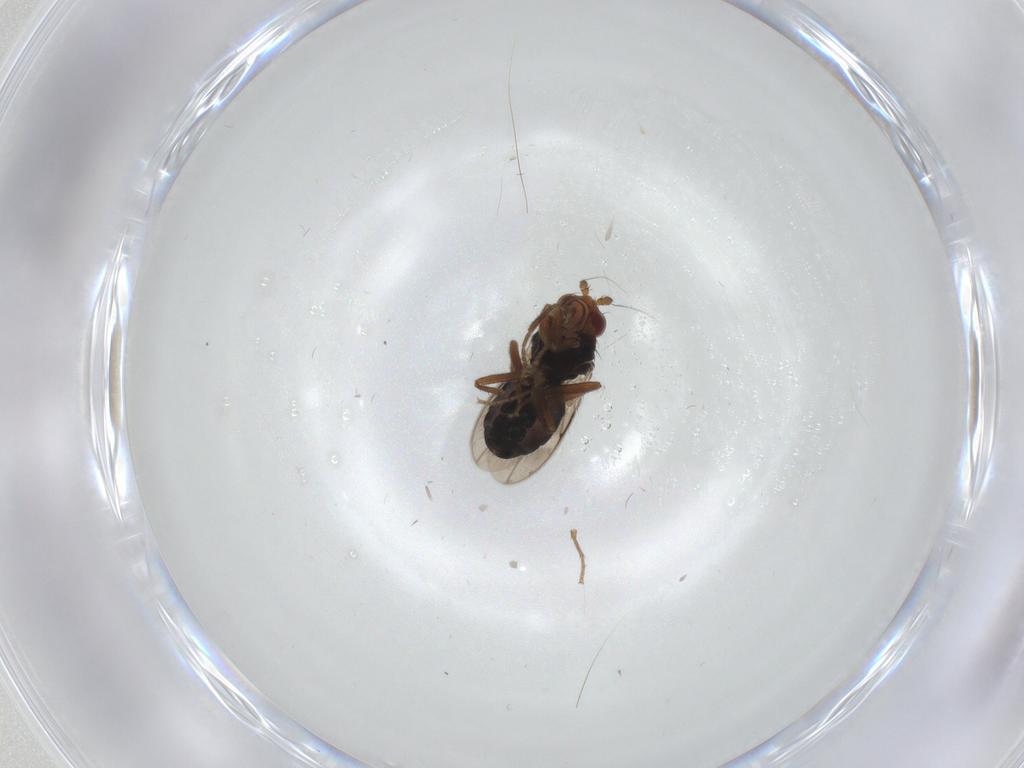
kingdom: Animalia
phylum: Arthropoda
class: Insecta
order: Diptera
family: Sphaeroceridae
